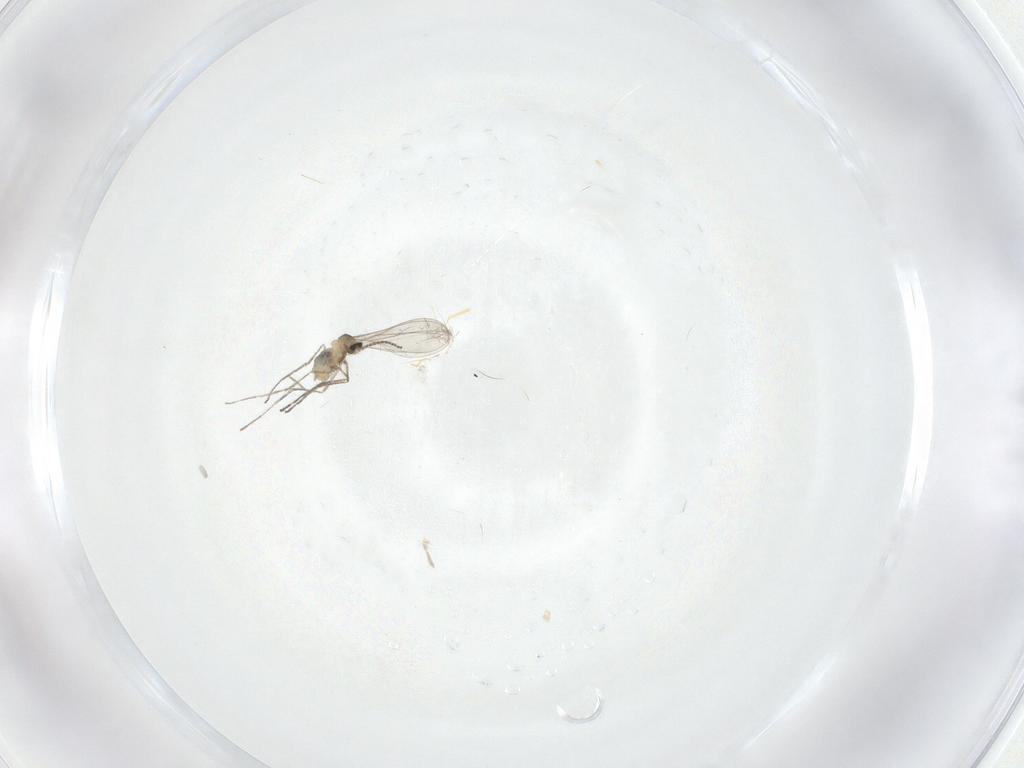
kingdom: Animalia
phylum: Arthropoda
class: Insecta
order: Diptera
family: Cecidomyiidae
